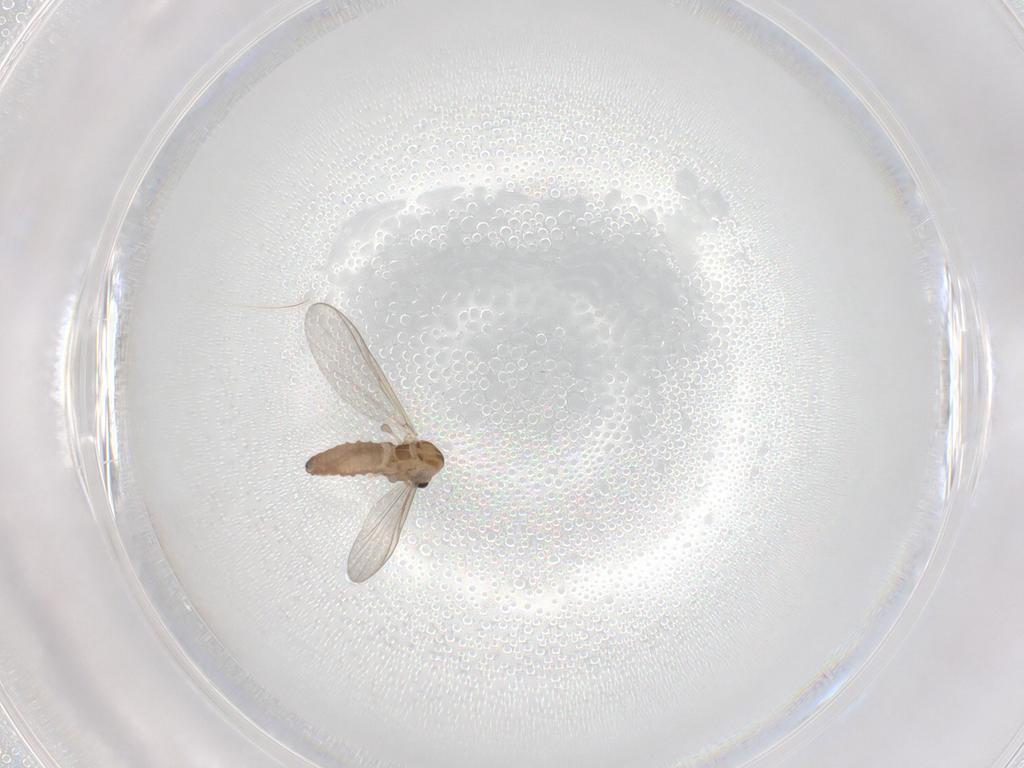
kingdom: Animalia
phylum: Arthropoda
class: Insecta
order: Diptera
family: Chironomidae
